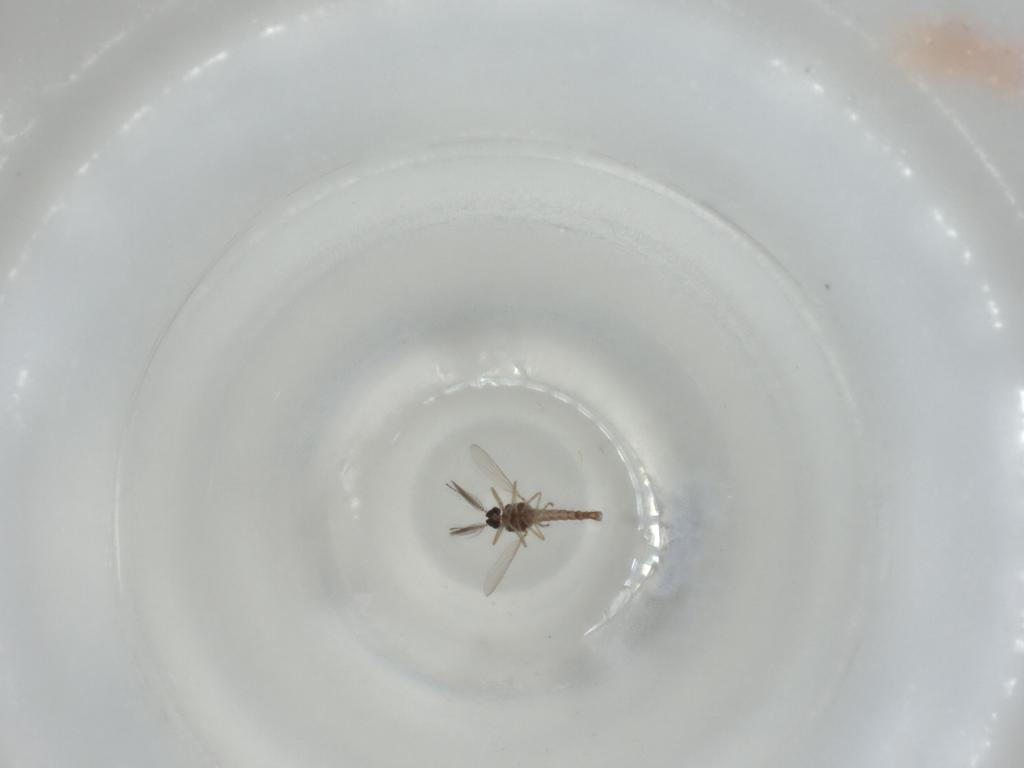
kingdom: Animalia
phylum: Arthropoda
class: Insecta
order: Diptera
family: Ceratopogonidae
